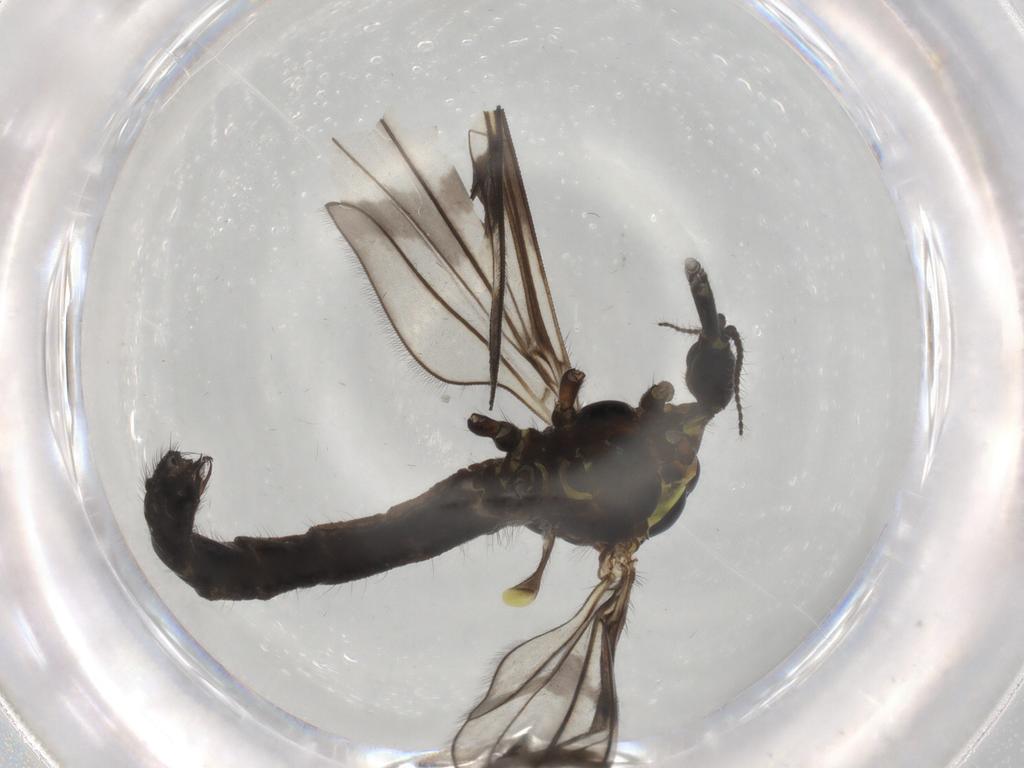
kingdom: Animalia
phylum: Arthropoda
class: Insecta
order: Diptera
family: Limoniidae
